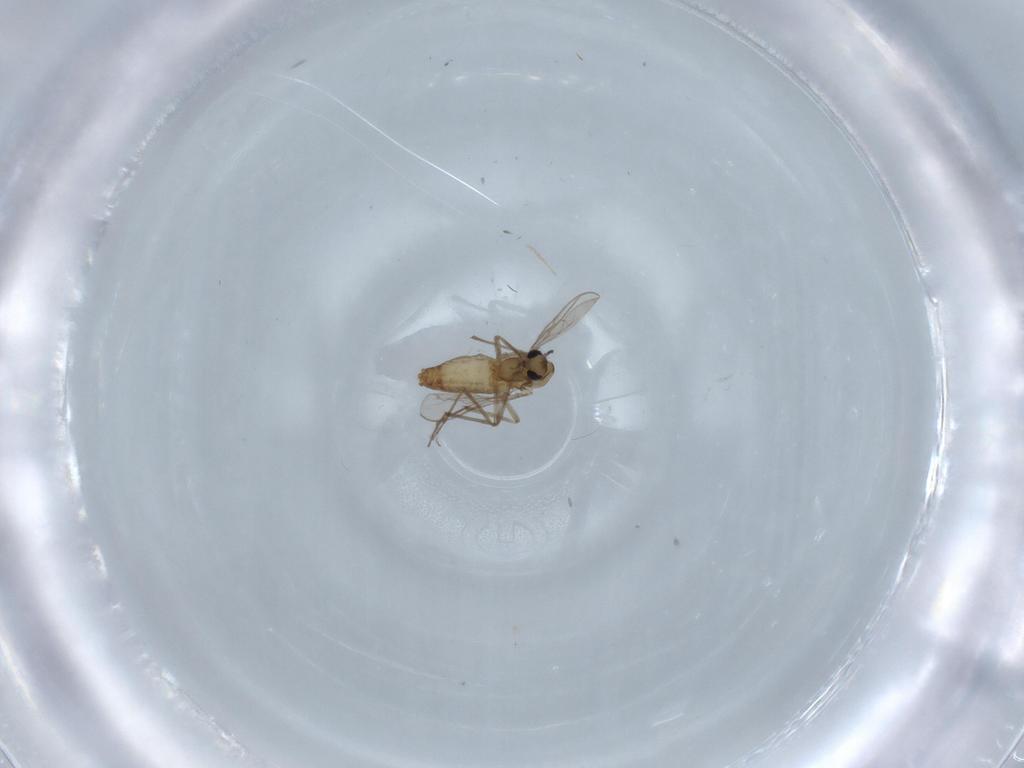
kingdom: Animalia
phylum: Arthropoda
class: Insecta
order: Diptera
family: Chironomidae
